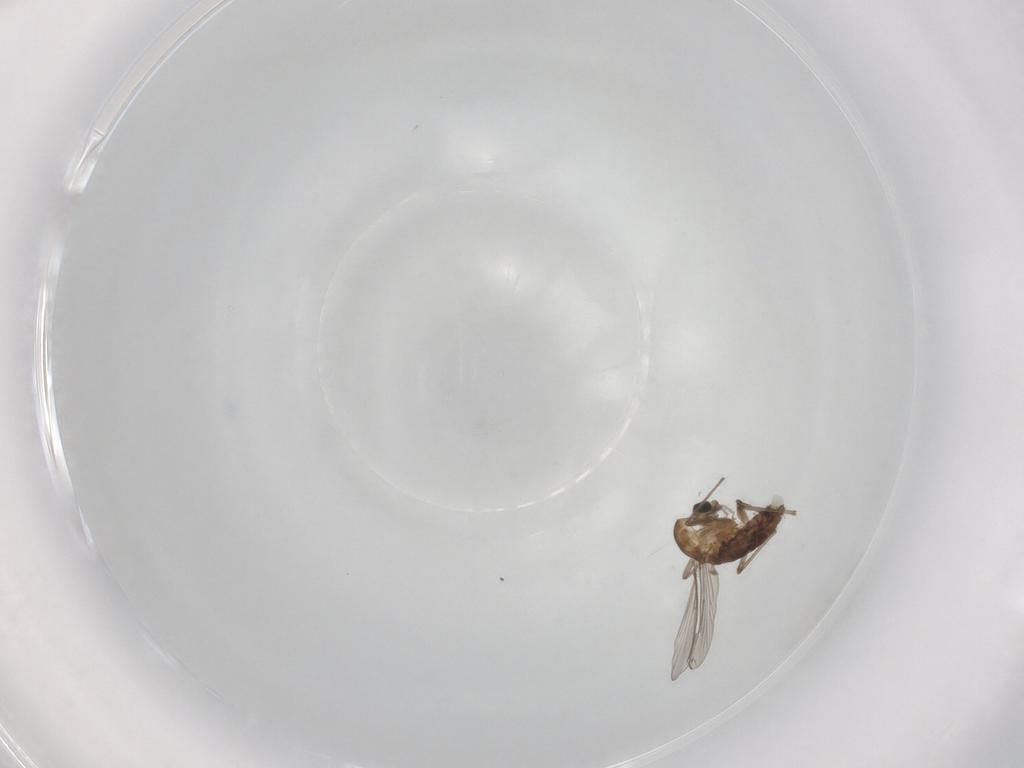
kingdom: Animalia
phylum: Arthropoda
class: Insecta
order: Diptera
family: Chironomidae
